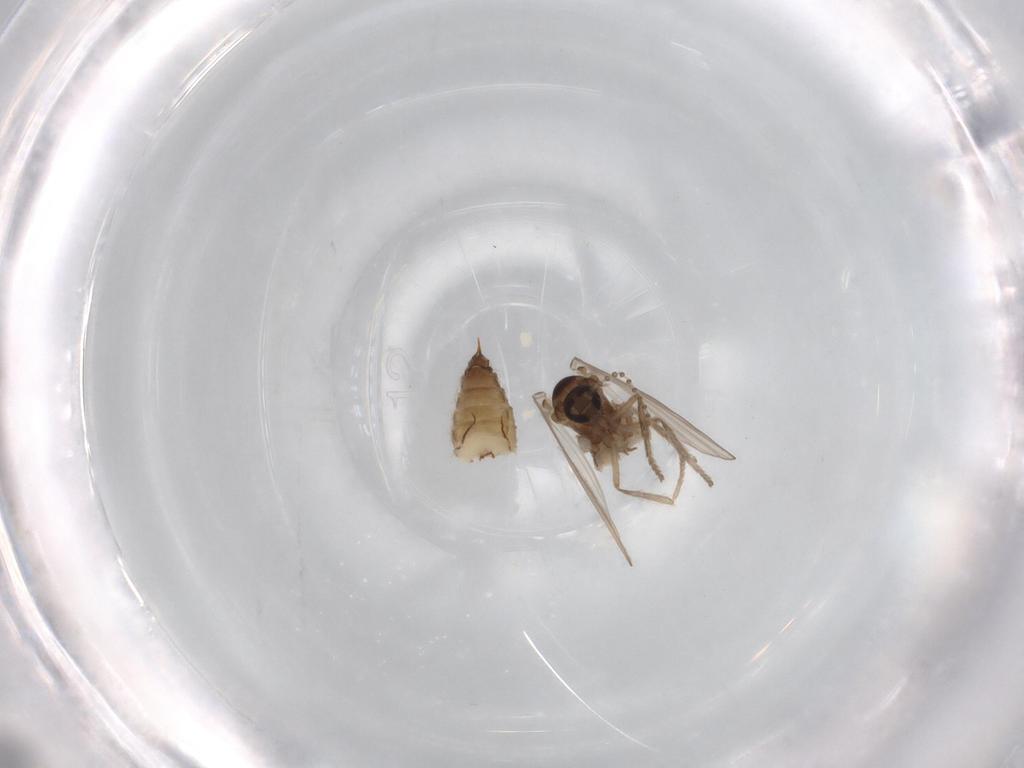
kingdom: Animalia
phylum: Arthropoda
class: Insecta
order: Diptera
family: Psychodidae
